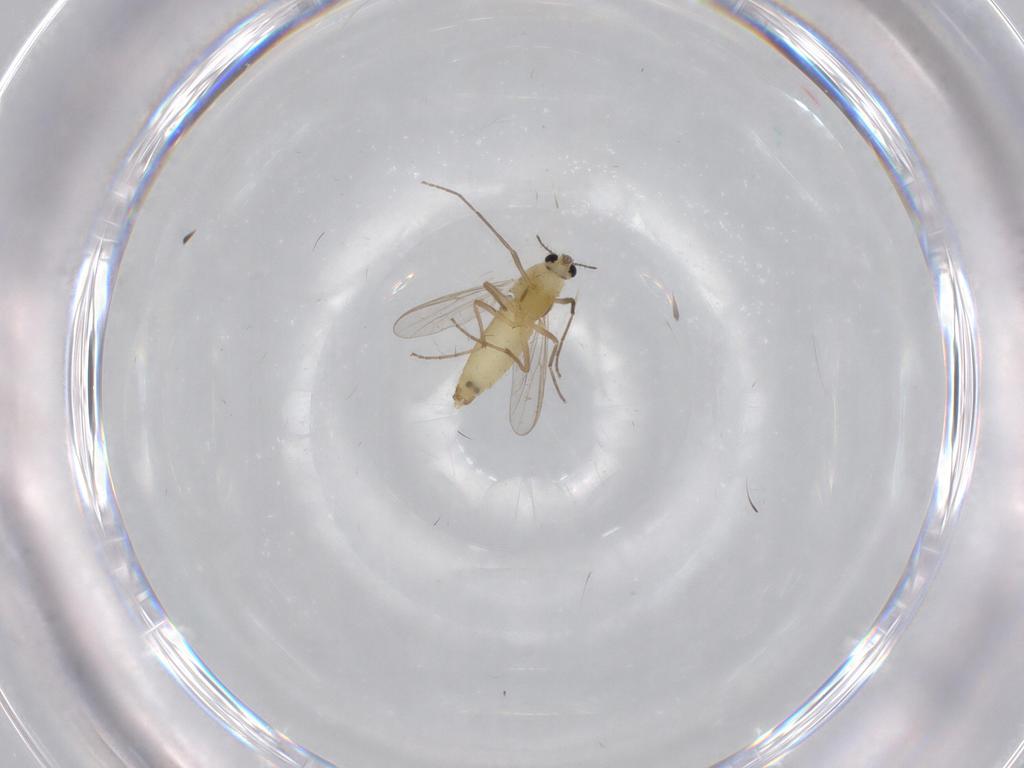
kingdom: Animalia
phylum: Arthropoda
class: Insecta
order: Diptera
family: Chironomidae
